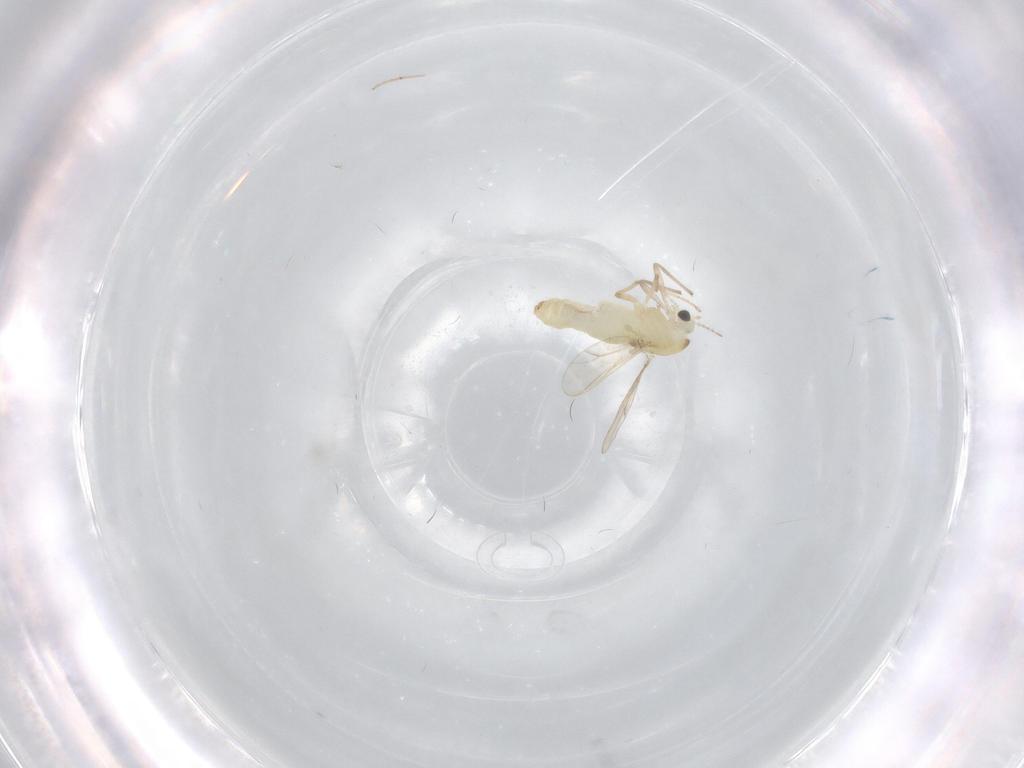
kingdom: Animalia
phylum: Arthropoda
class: Insecta
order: Diptera
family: Chironomidae
